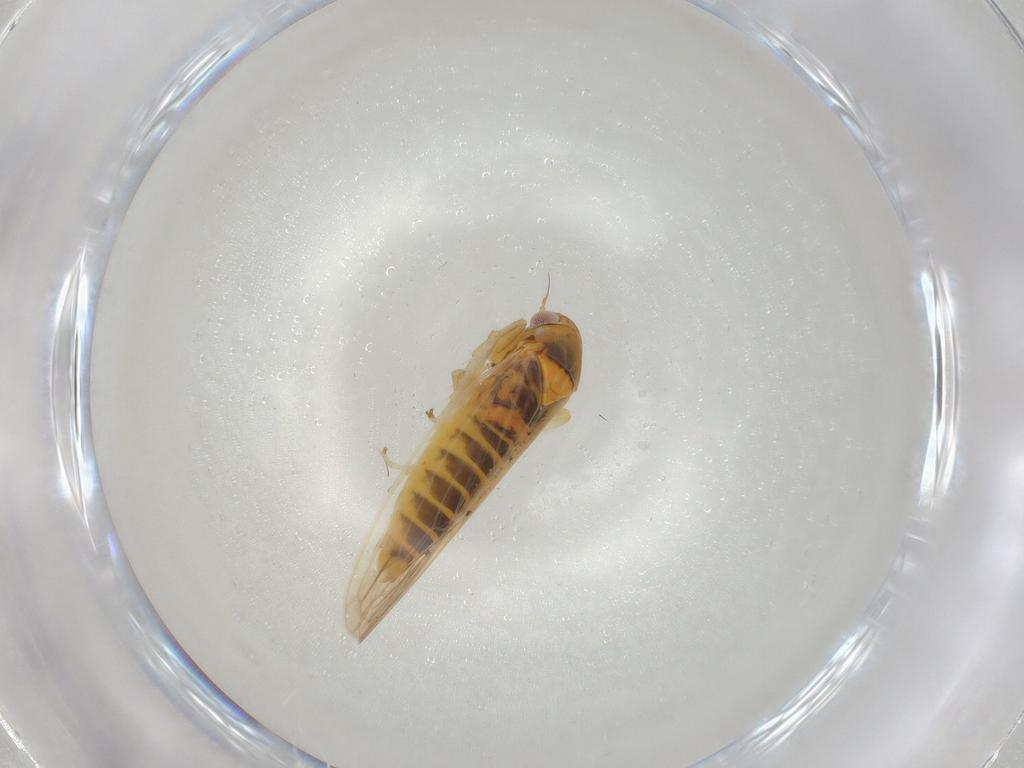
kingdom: Animalia
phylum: Arthropoda
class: Insecta
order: Hemiptera
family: Cicadellidae
